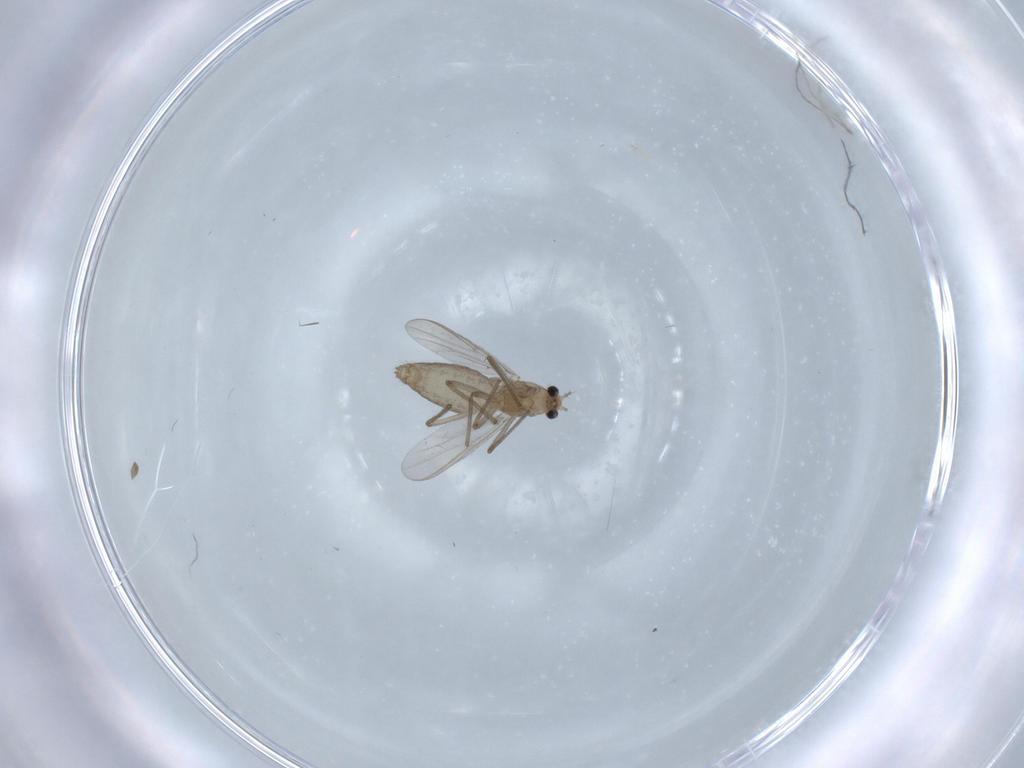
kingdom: Animalia
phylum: Arthropoda
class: Insecta
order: Diptera
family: Chironomidae
